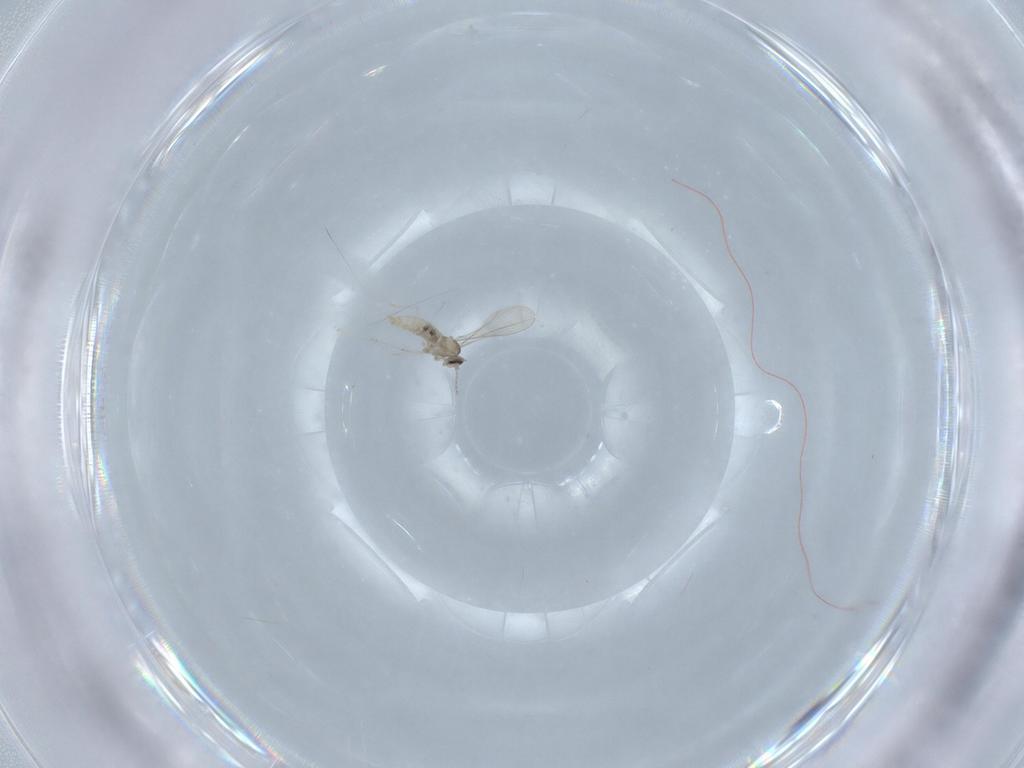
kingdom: Animalia
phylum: Arthropoda
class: Insecta
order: Diptera
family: Cecidomyiidae
